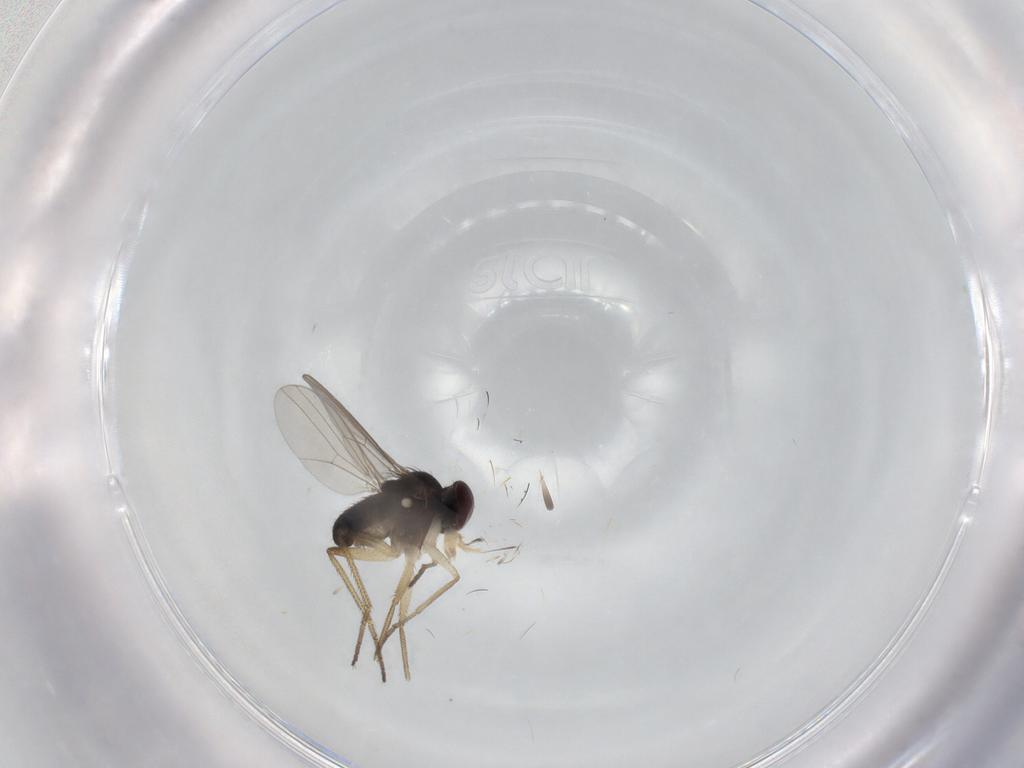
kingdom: Animalia
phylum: Arthropoda
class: Insecta
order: Diptera
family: Dolichopodidae
